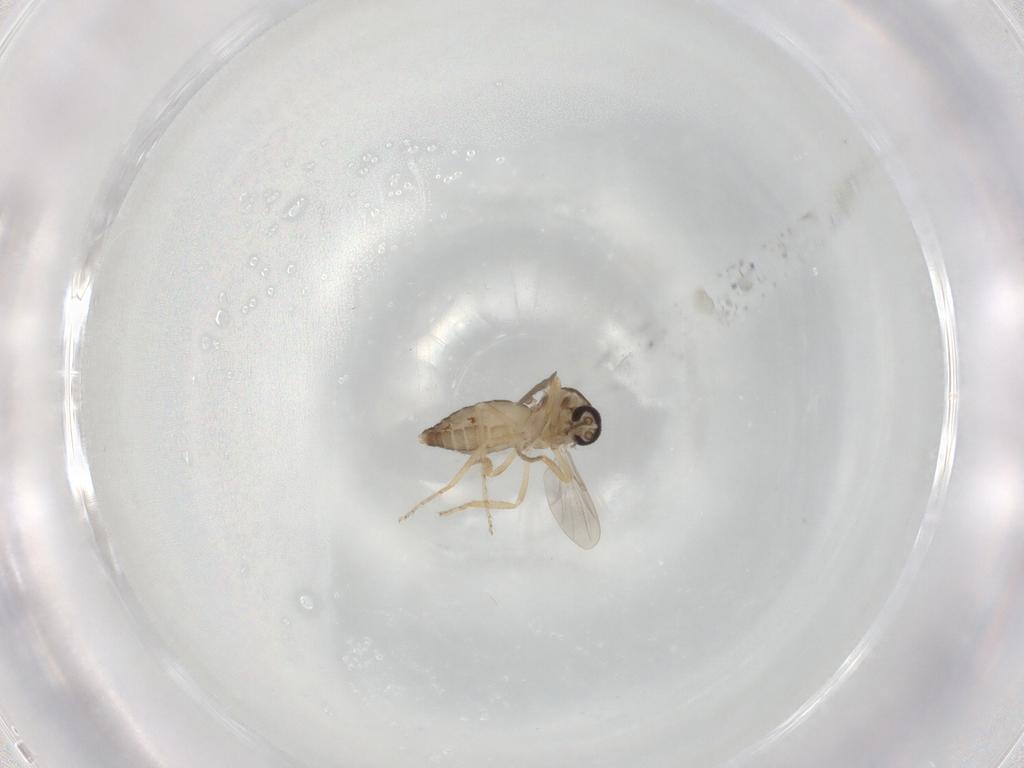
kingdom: Animalia
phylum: Arthropoda
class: Insecta
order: Diptera
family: Ceratopogonidae
